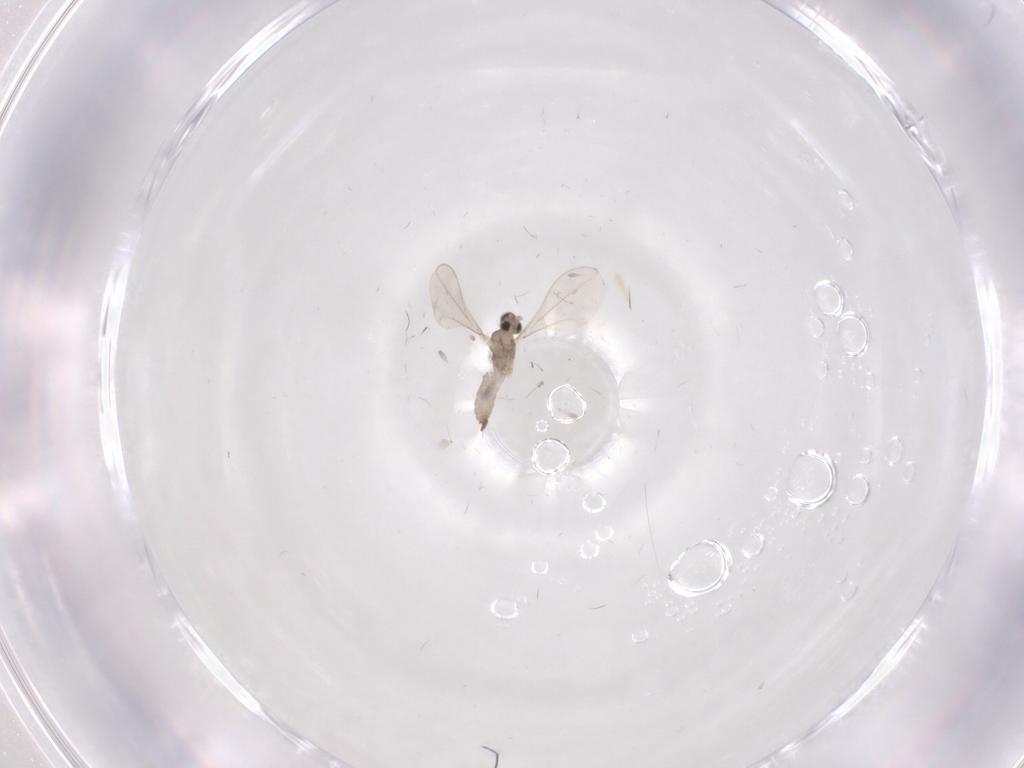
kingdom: Animalia
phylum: Arthropoda
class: Insecta
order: Diptera
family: Cecidomyiidae
